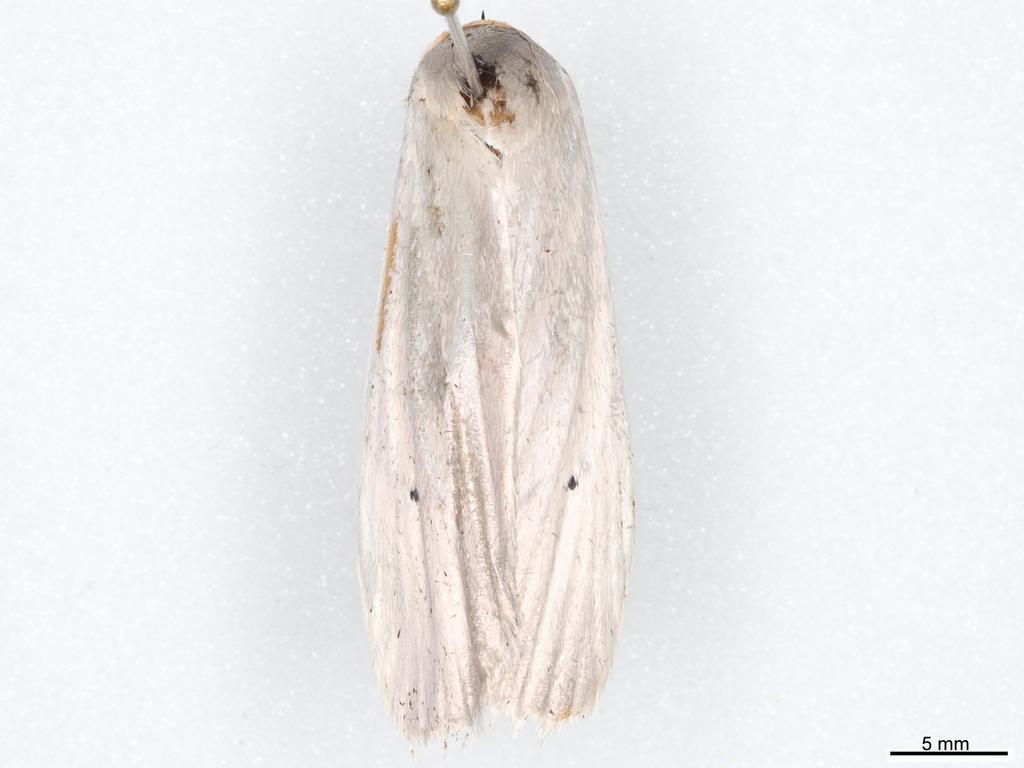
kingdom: Animalia
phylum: Arthropoda
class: Insecta
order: Lepidoptera
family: Xyloryctidae
